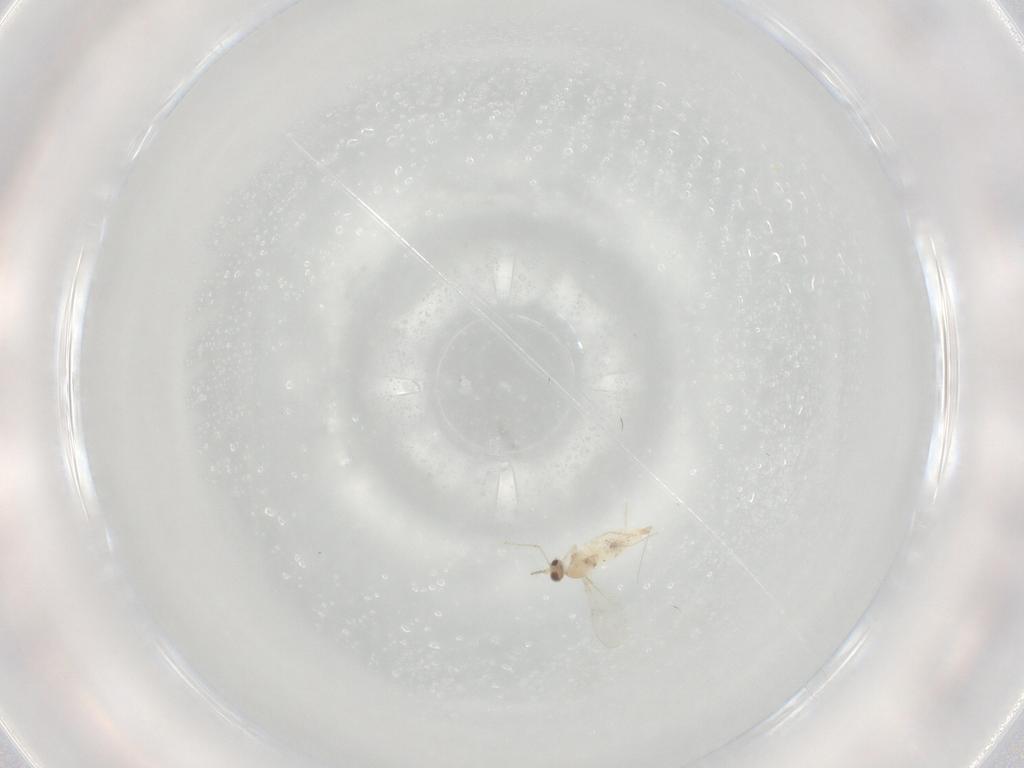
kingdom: Animalia
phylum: Arthropoda
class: Insecta
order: Diptera
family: Cecidomyiidae
